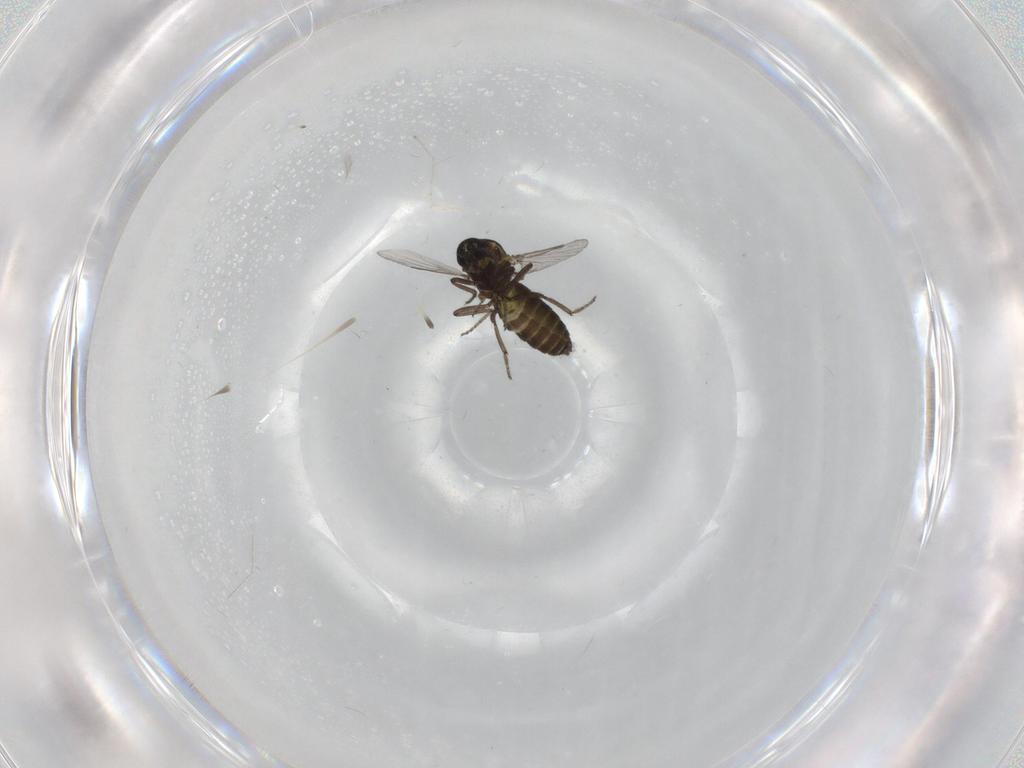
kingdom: Animalia
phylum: Arthropoda
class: Insecta
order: Diptera
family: Ceratopogonidae
